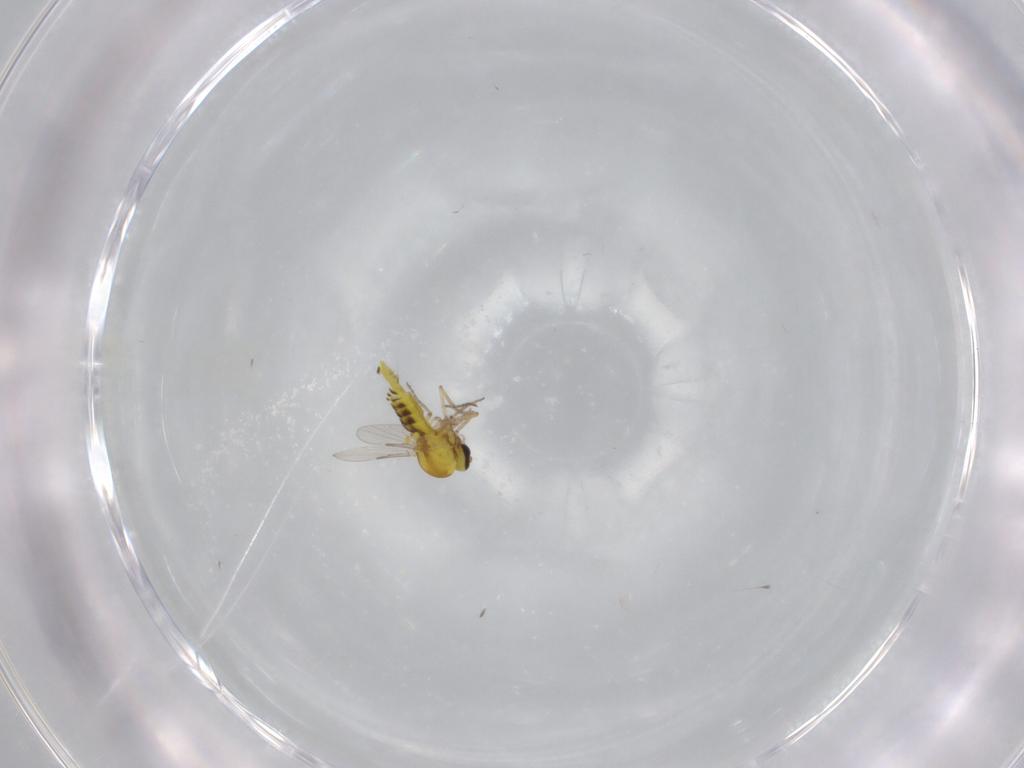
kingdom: Animalia
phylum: Arthropoda
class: Insecta
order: Diptera
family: Ceratopogonidae
